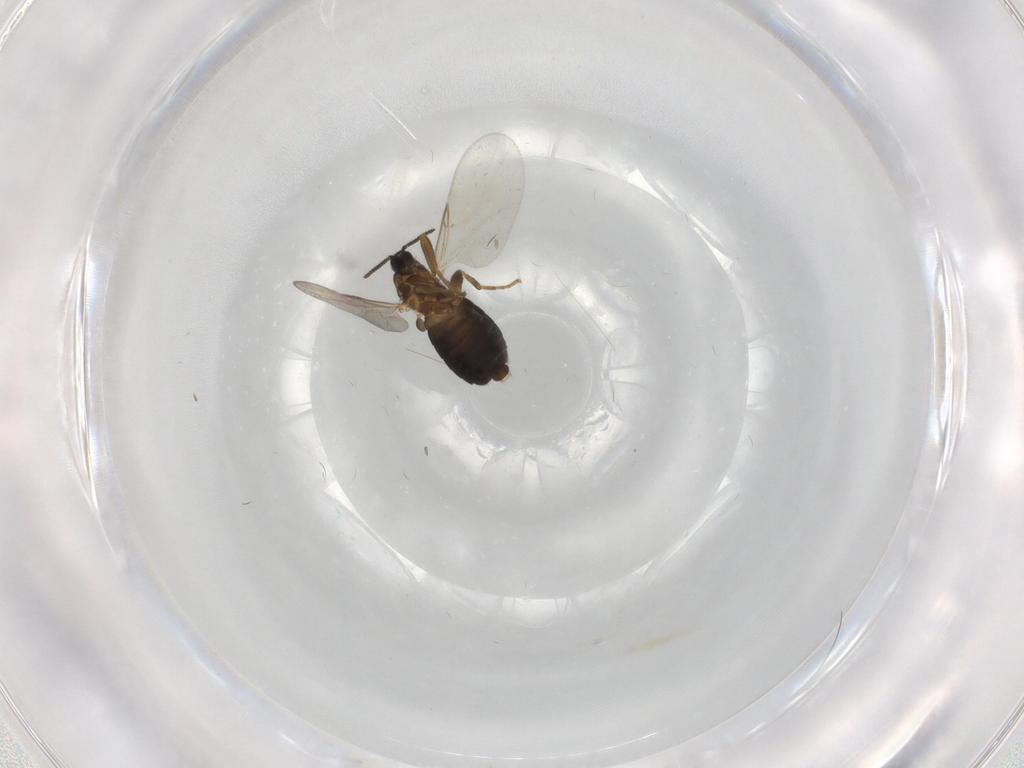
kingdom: Animalia
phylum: Arthropoda
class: Insecta
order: Diptera
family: Scatopsidae
